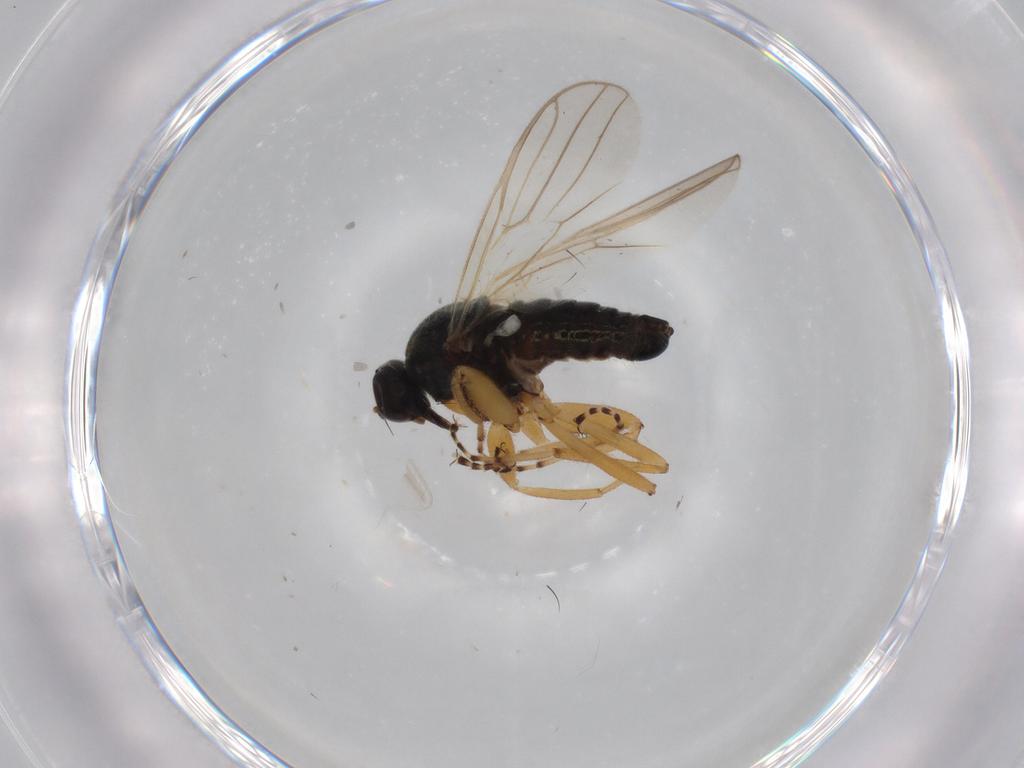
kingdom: Animalia
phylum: Arthropoda
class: Insecta
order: Diptera
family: Hybotidae
